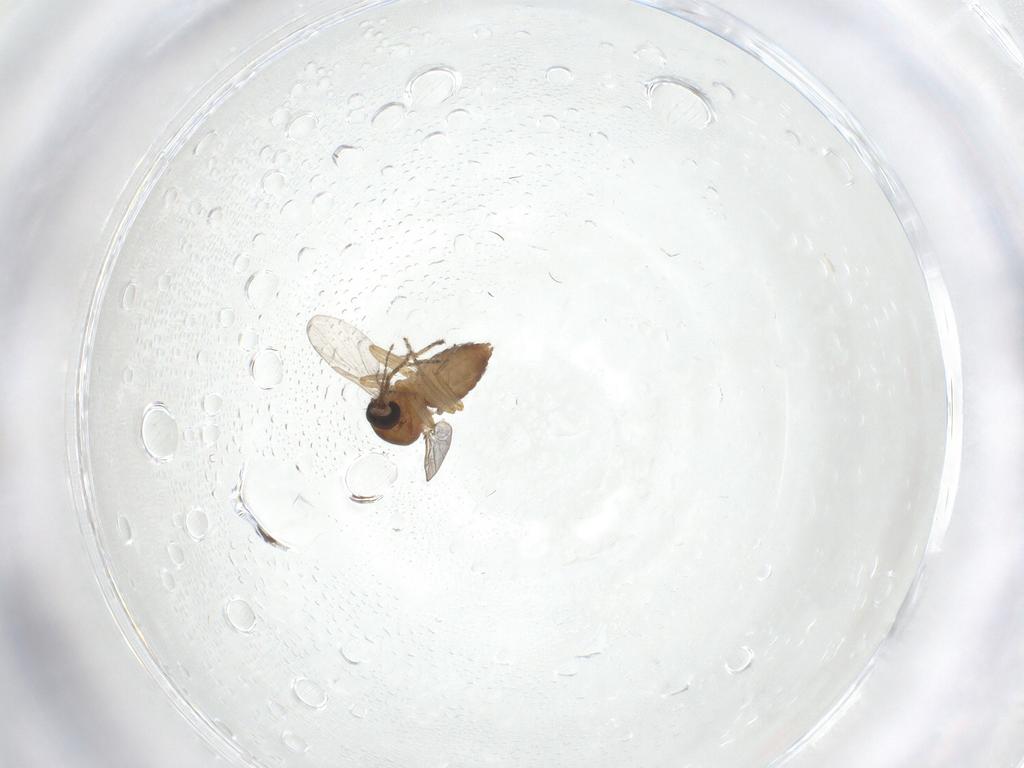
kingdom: Animalia
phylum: Arthropoda
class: Insecta
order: Diptera
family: Ceratopogonidae
